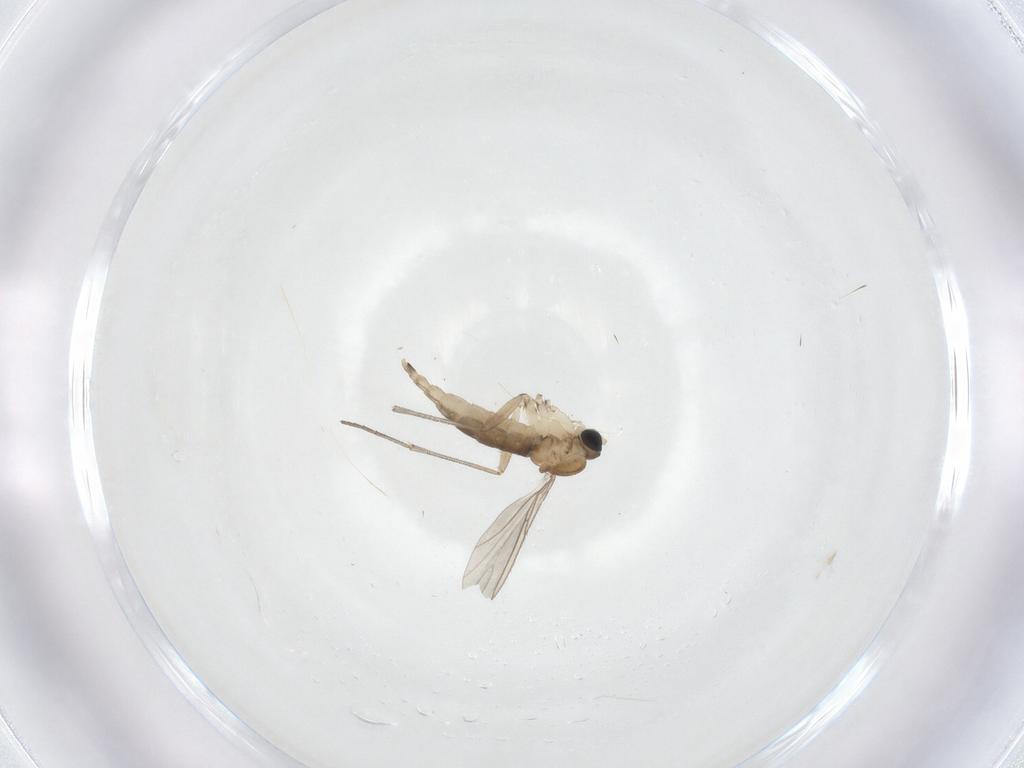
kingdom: Animalia
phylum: Arthropoda
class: Insecta
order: Diptera
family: Sciaridae
